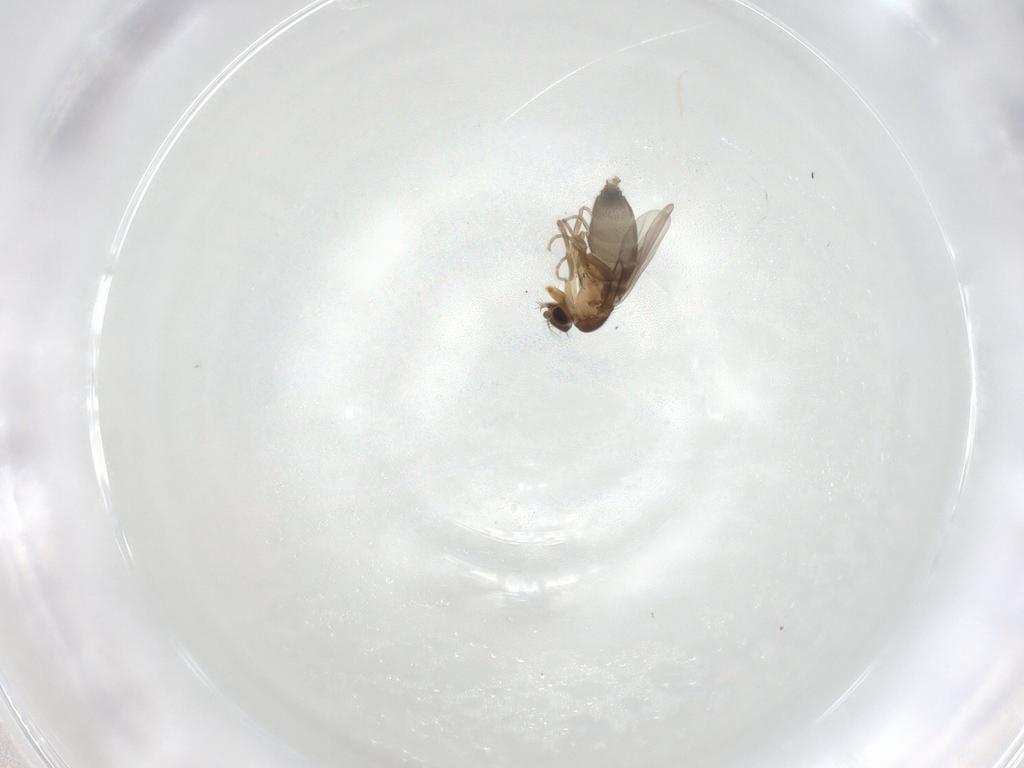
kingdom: Animalia
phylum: Arthropoda
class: Insecta
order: Diptera
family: Phoridae
